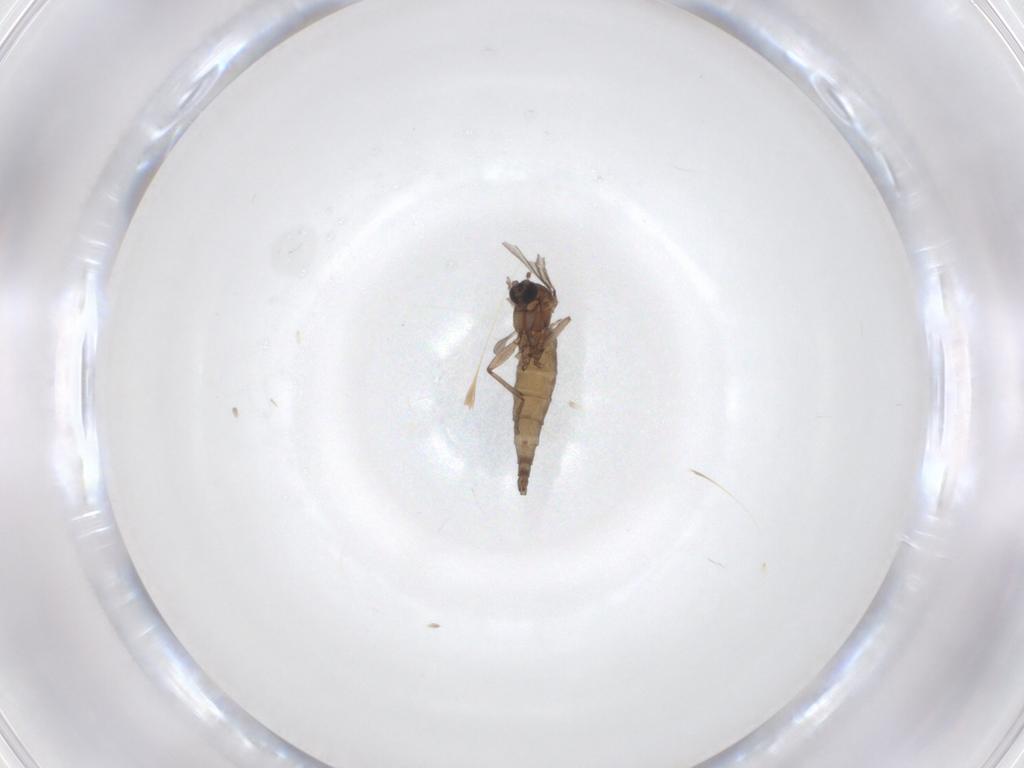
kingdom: Animalia
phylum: Arthropoda
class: Insecta
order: Diptera
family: Sciaridae
